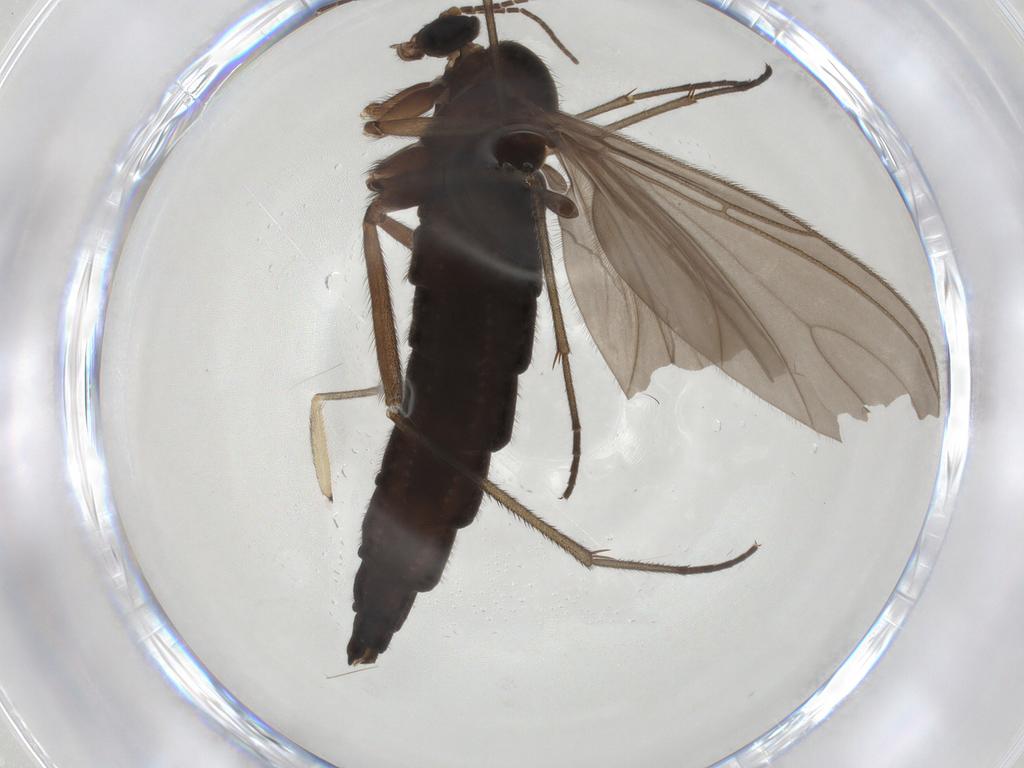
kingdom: Animalia
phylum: Arthropoda
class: Insecta
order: Diptera
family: Sciaridae
